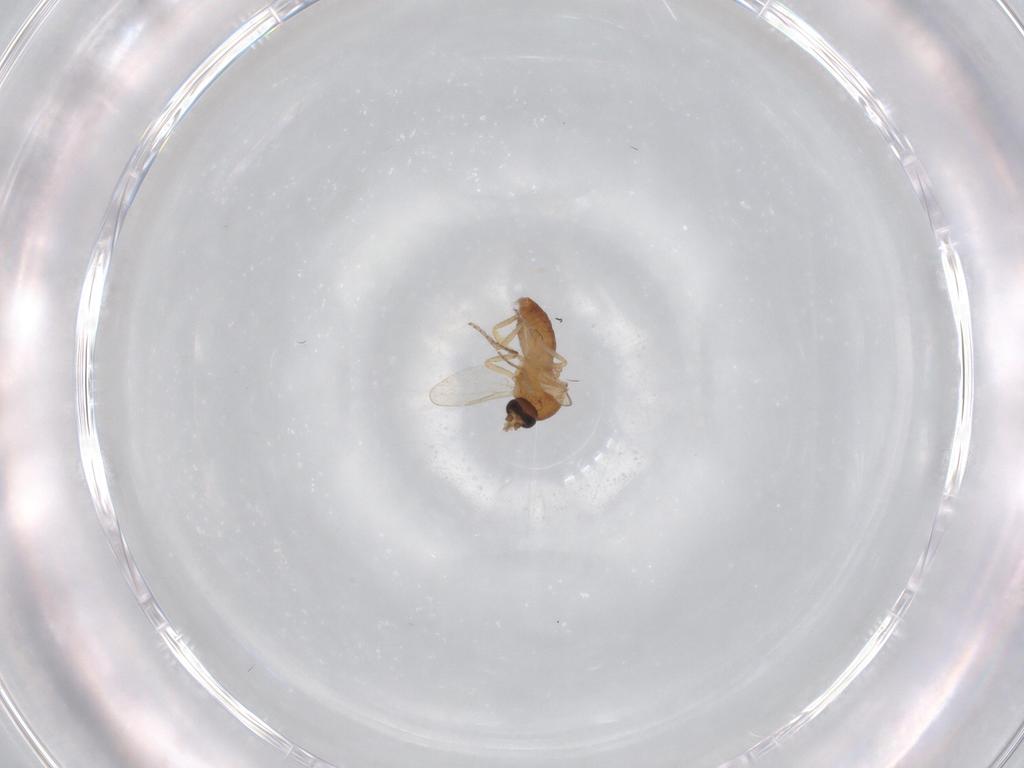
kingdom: Animalia
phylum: Arthropoda
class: Insecta
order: Diptera
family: Ceratopogonidae
